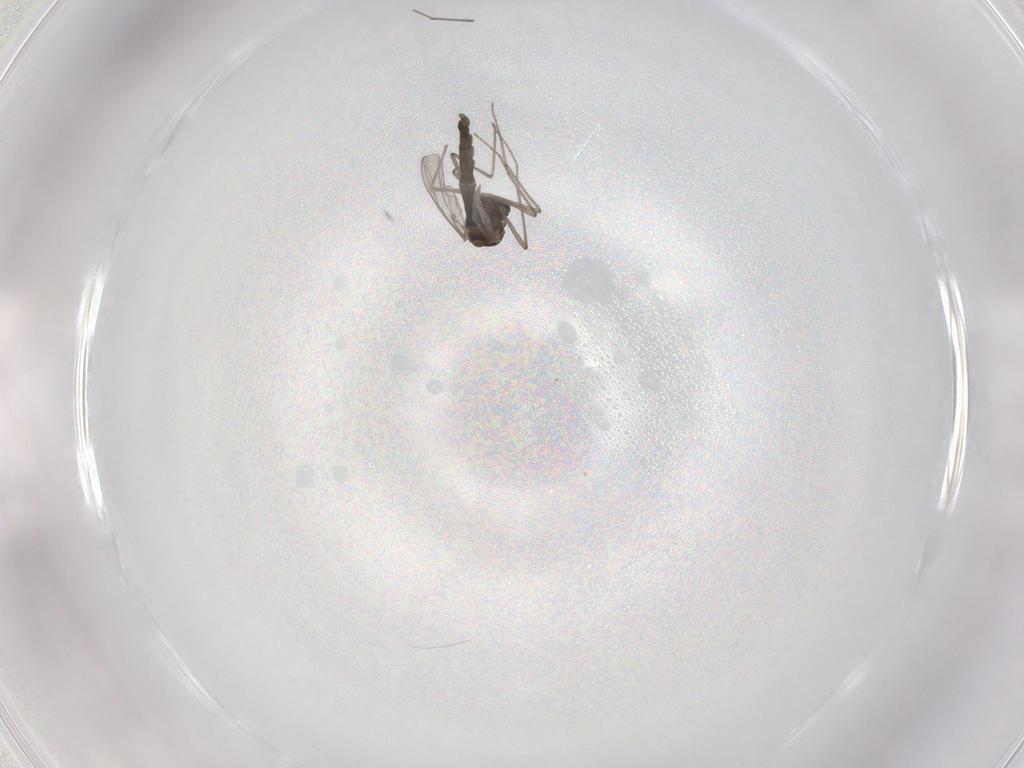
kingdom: Animalia
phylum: Arthropoda
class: Insecta
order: Diptera
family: Chironomidae
